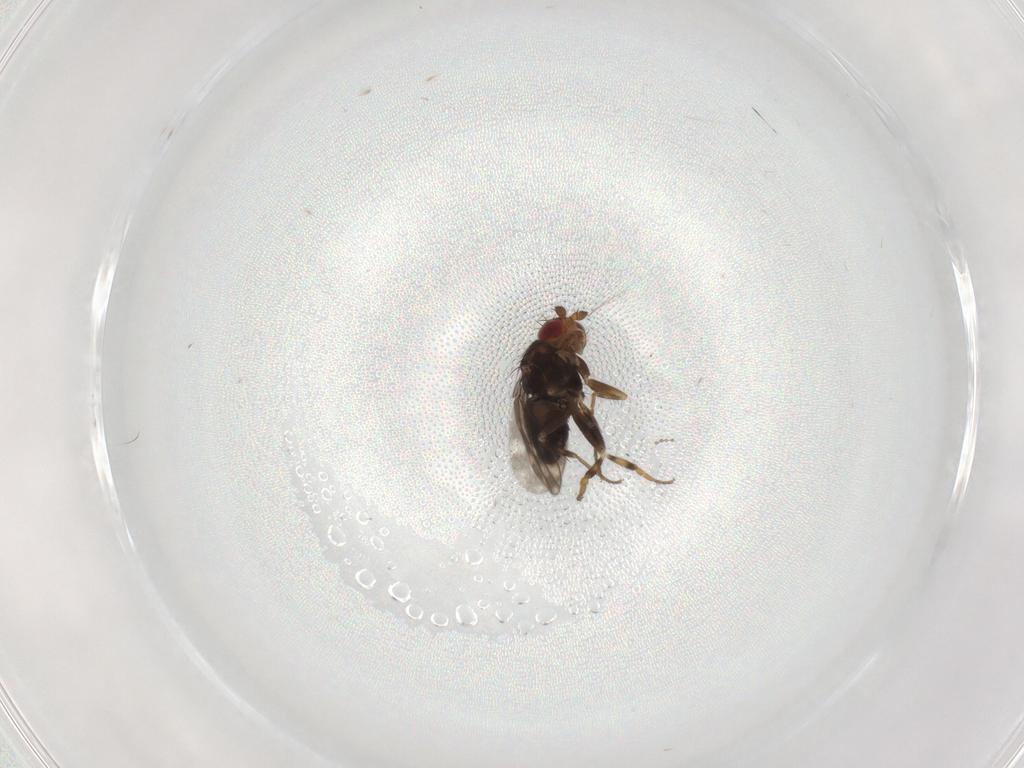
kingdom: Animalia
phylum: Arthropoda
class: Insecta
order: Diptera
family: Sphaeroceridae
